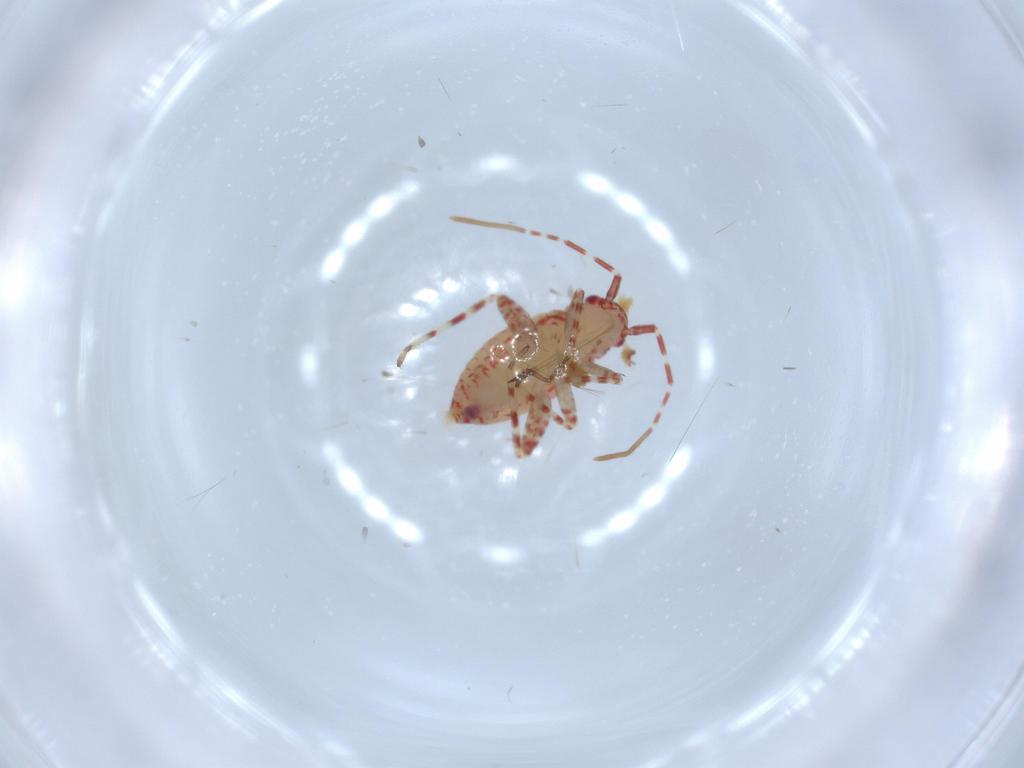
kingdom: Animalia
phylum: Arthropoda
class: Insecta
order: Hemiptera
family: Miridae
